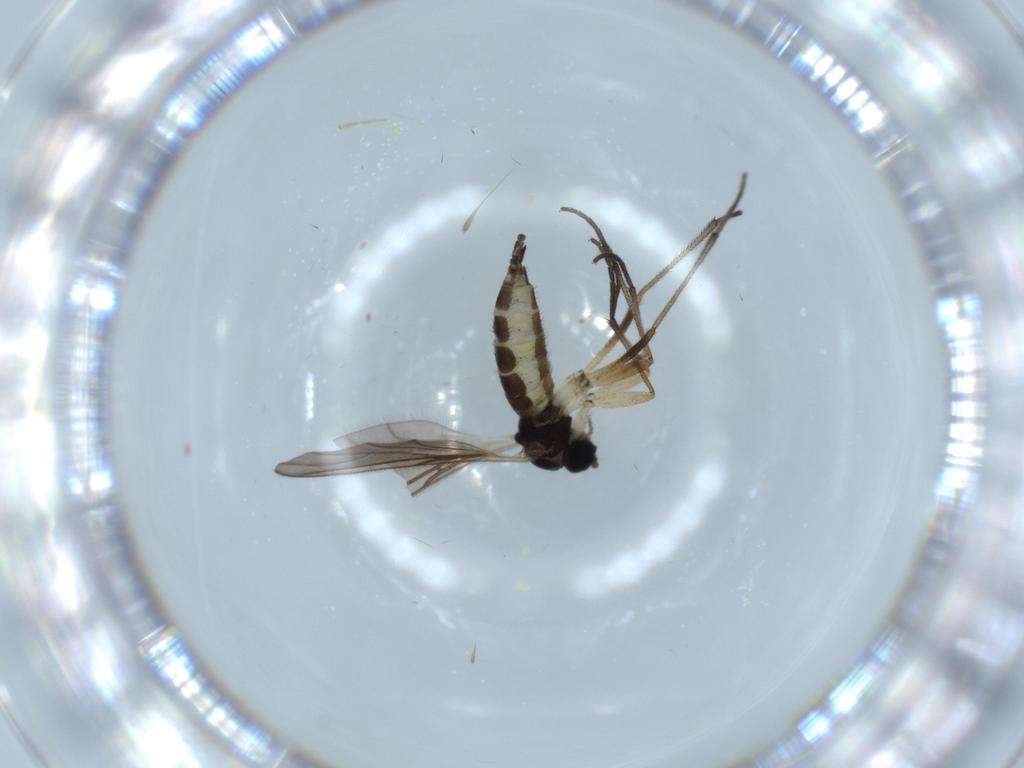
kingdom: Animalia
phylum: Arthropoda
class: Insecta
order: Diptera
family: Sciaridae
